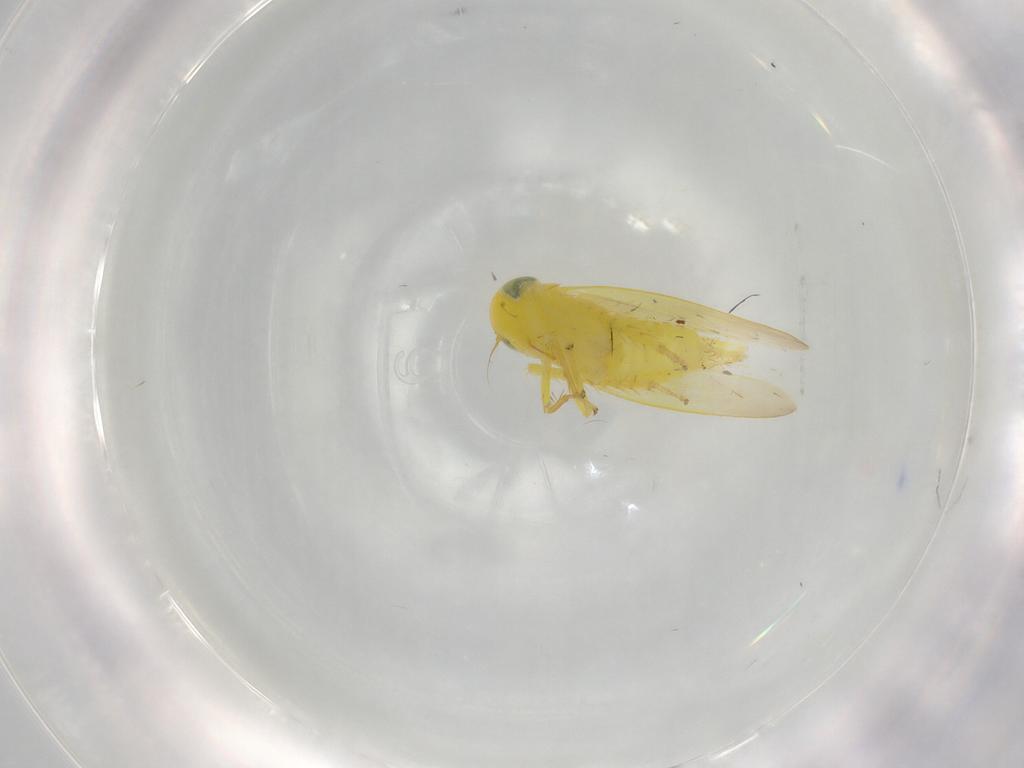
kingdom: Animalia
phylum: Arthropoda
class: Insecta
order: Hemiptera
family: Cicadellidae
